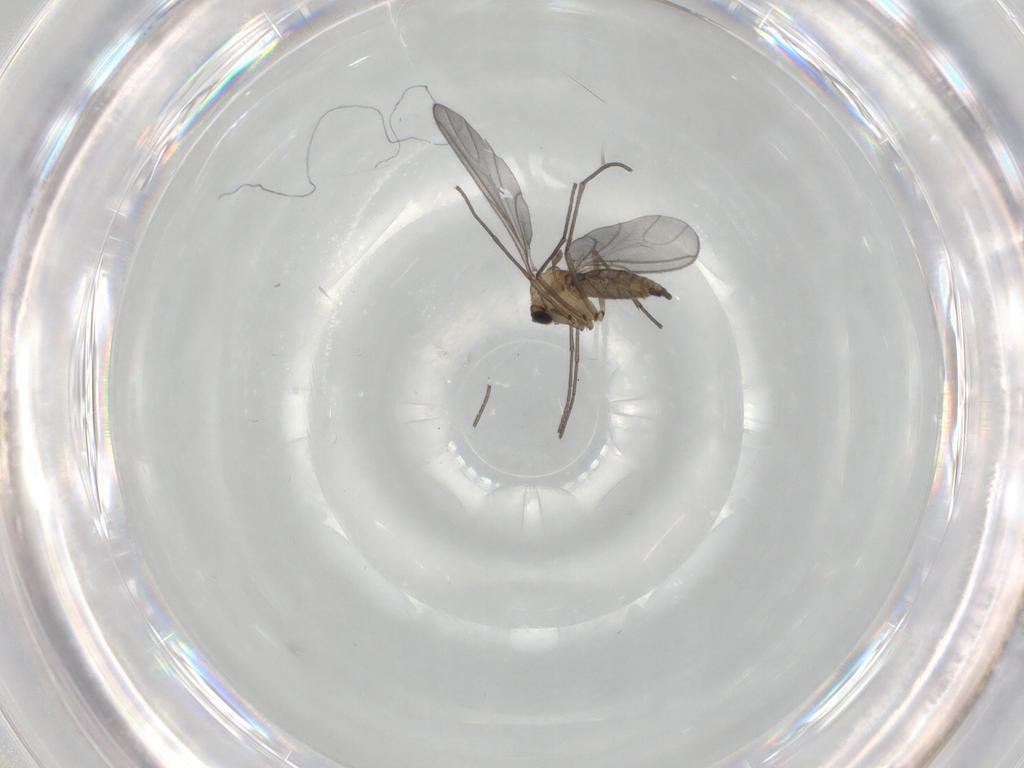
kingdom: Animalia
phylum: Arthropoda
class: Insecta
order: Diptera
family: Sciaridae
